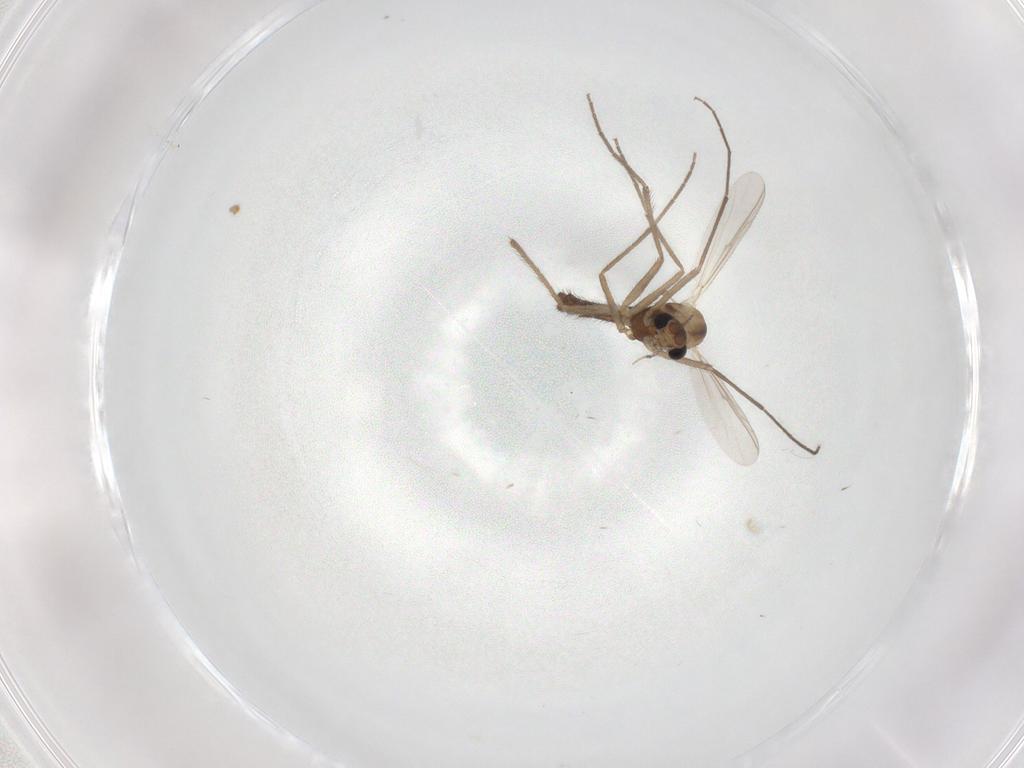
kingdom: Animalia
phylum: Arthropoda
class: Insecta
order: Diptera
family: Chironomidae
